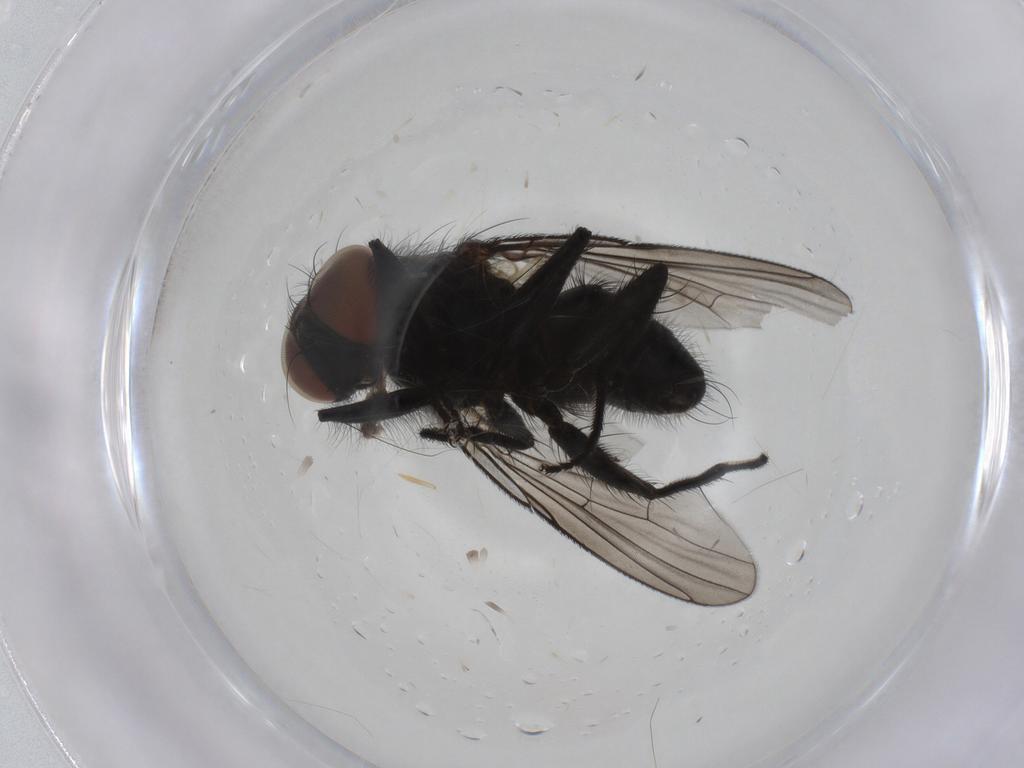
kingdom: Animalia
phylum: Arthropoda
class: Insecta
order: Diptera
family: Muscidae
